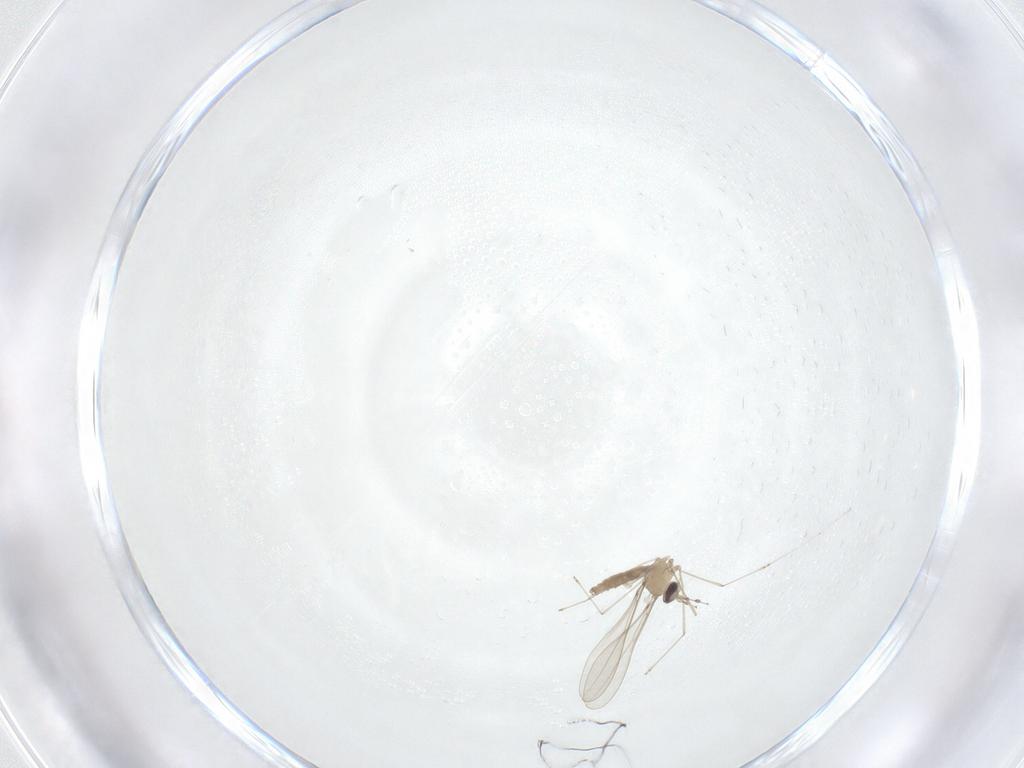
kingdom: Animalia
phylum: Arthropoda
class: Insecta
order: Diptera
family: Cecidomyiidae
